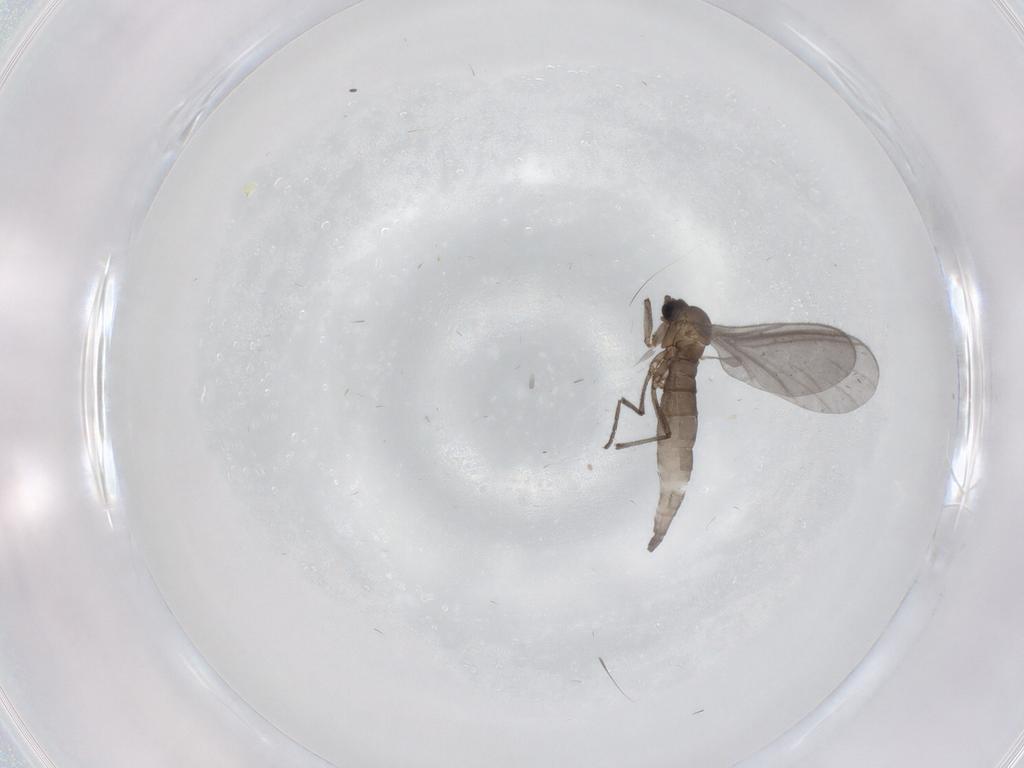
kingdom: Animalia
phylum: Arthropoda
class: Insecta
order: Diptera
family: Sciaridae
